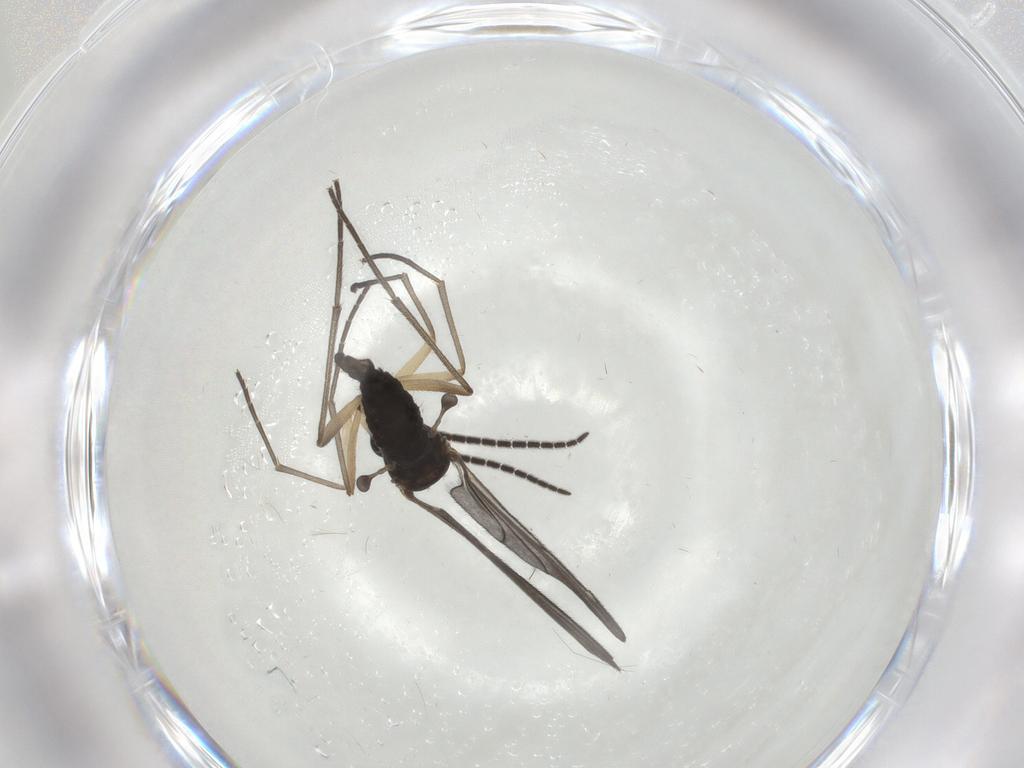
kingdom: Animalia
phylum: Arthropoda
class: Insecta
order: Diptera
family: Sciaridae
